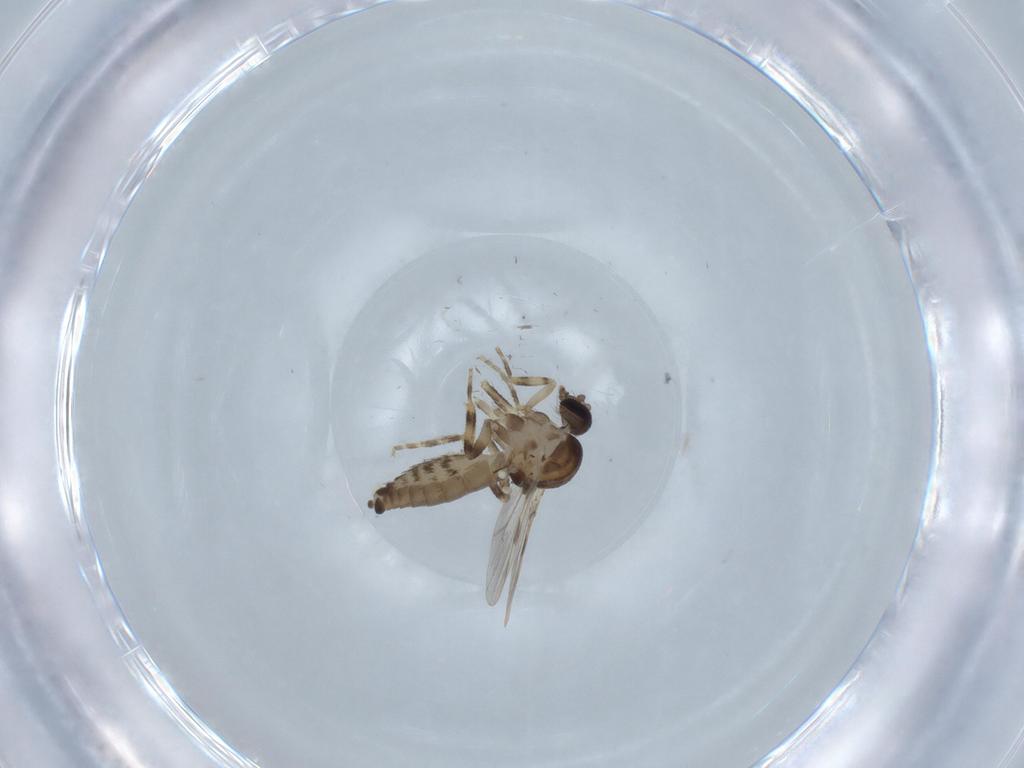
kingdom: Animalia
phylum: Arthropoda
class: Insecta
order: Diptera
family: Ceratopogonidae
